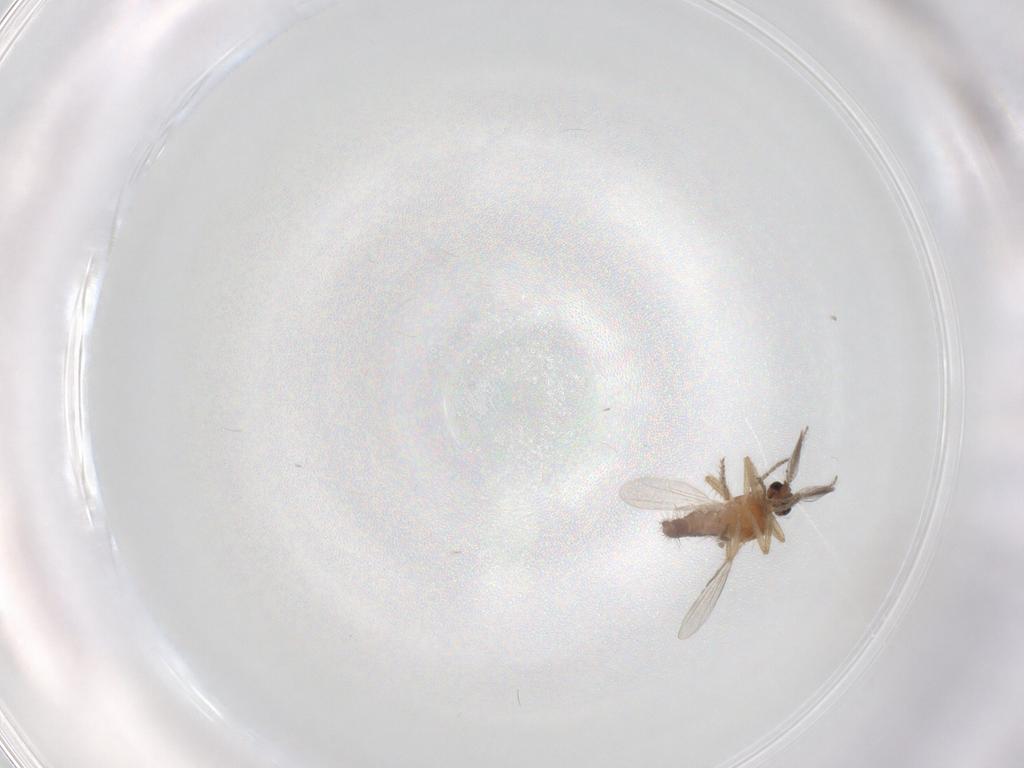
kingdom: Animalia
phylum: Arthropoda
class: Insecta
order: Diptera
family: Ceratopogonidae
